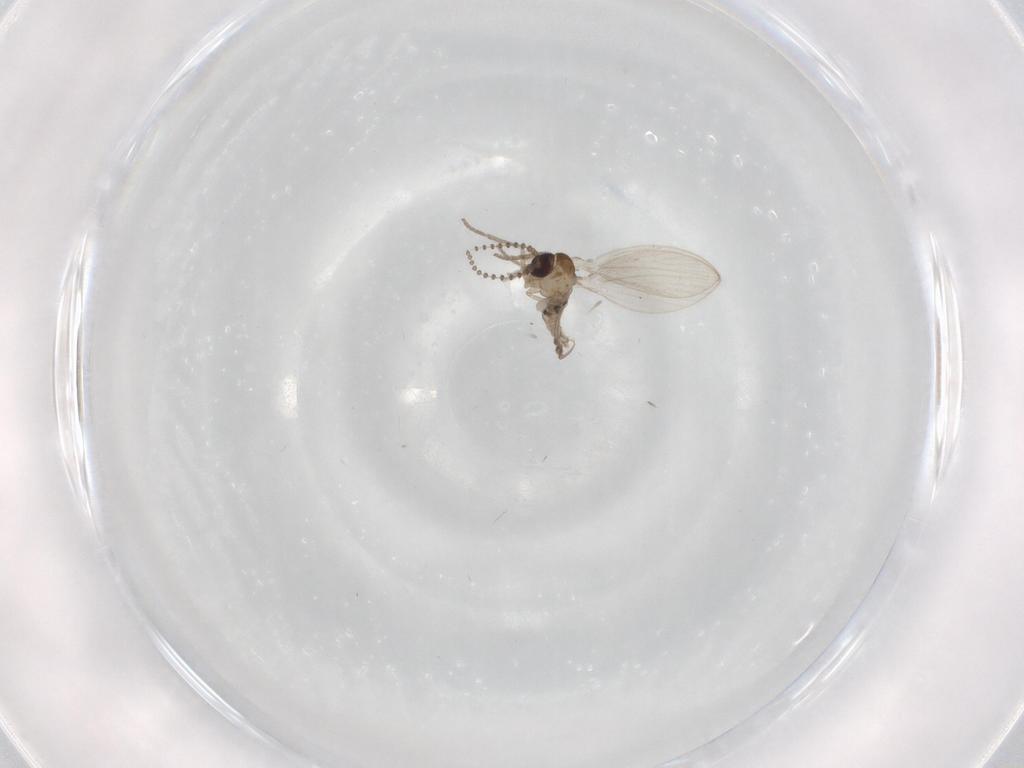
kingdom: Animalia
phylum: Arthropoda
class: Insecta
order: Diptera
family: Psychodidae
